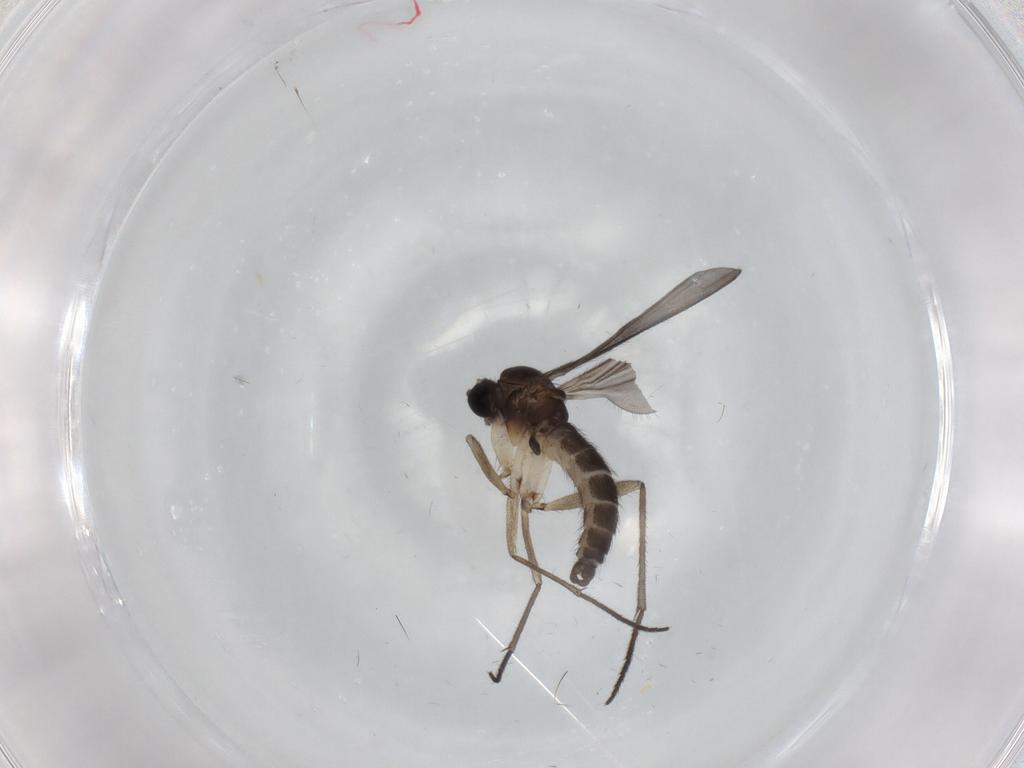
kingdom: Animalia
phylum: Arthropoda
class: Insecta
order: Diptera
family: Sciaridae
